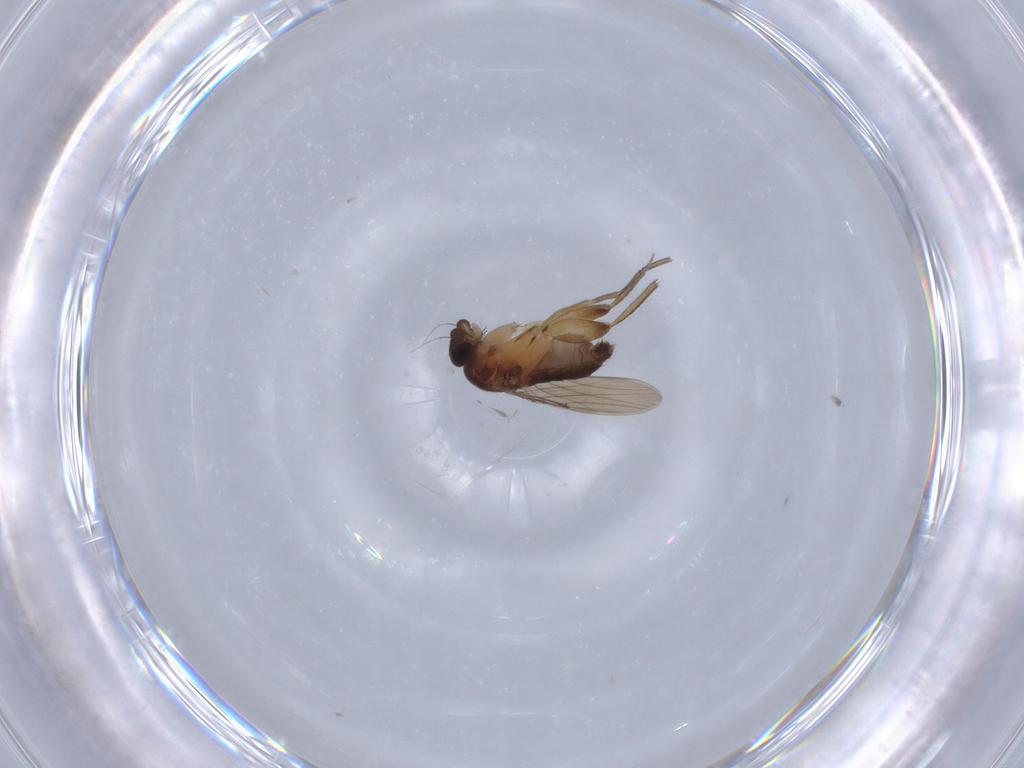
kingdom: Animalia
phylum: Arthropoda
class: Insecta
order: Diptera
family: Phoridae
